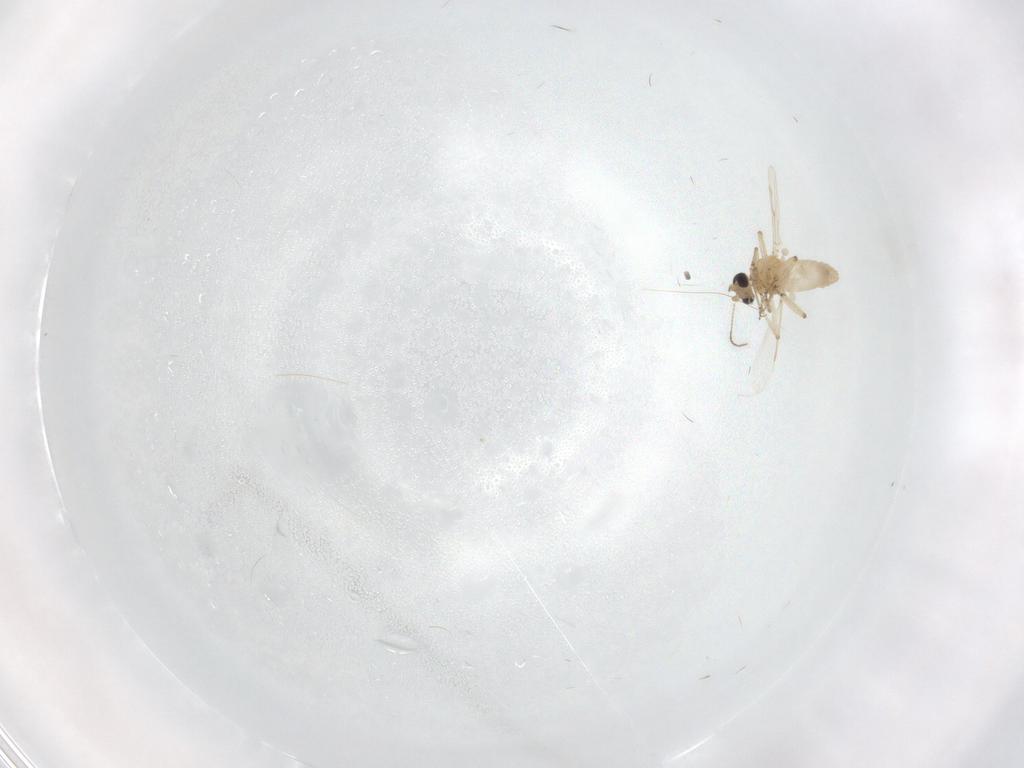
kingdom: Animalia
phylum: Arthropoda
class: Insecta
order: Diptera
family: Ceratopogonidae
